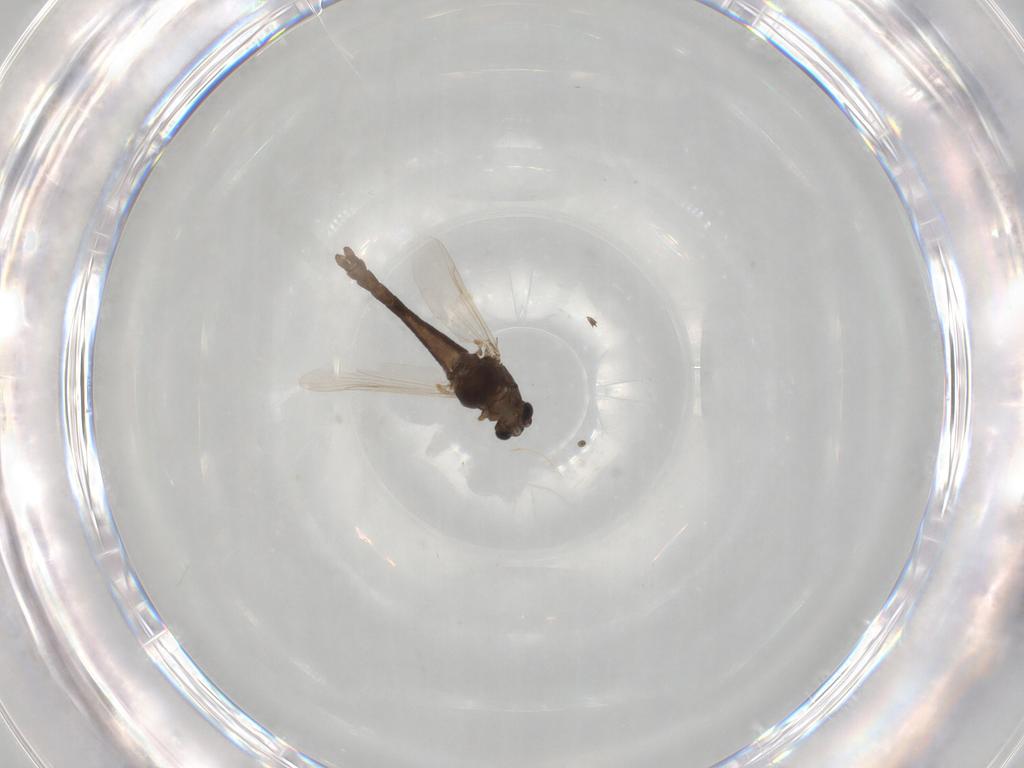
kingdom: Animalia
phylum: Arthropoda
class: Insecta
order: Diptera
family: Chironomidae
